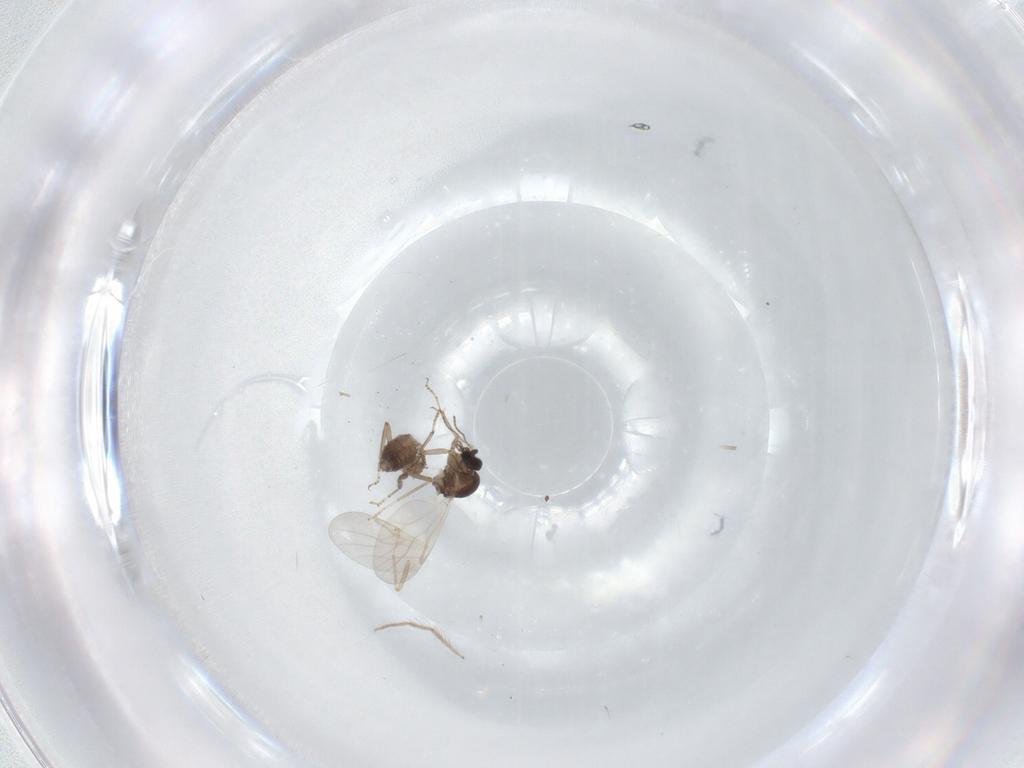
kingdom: Animalia
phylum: Arthropoda
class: Insecta
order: Diptera
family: Ceratopogonidae
